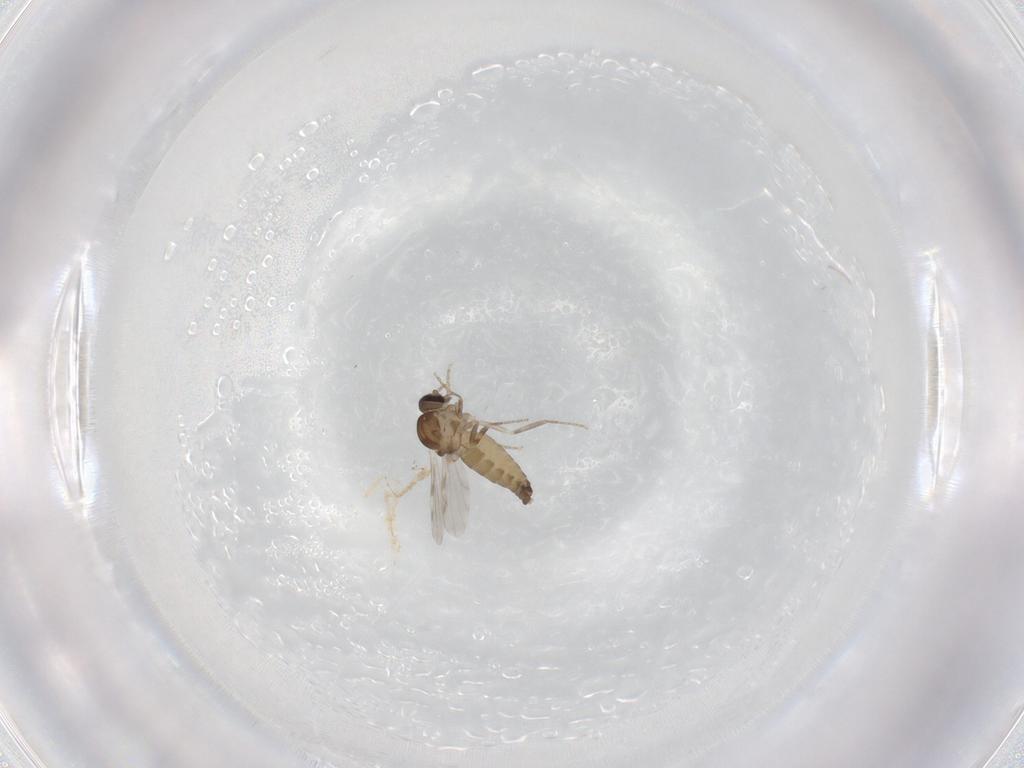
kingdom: Animalia
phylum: Arthropoda
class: Insecta
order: Diptera
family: Ceratopogonidae
